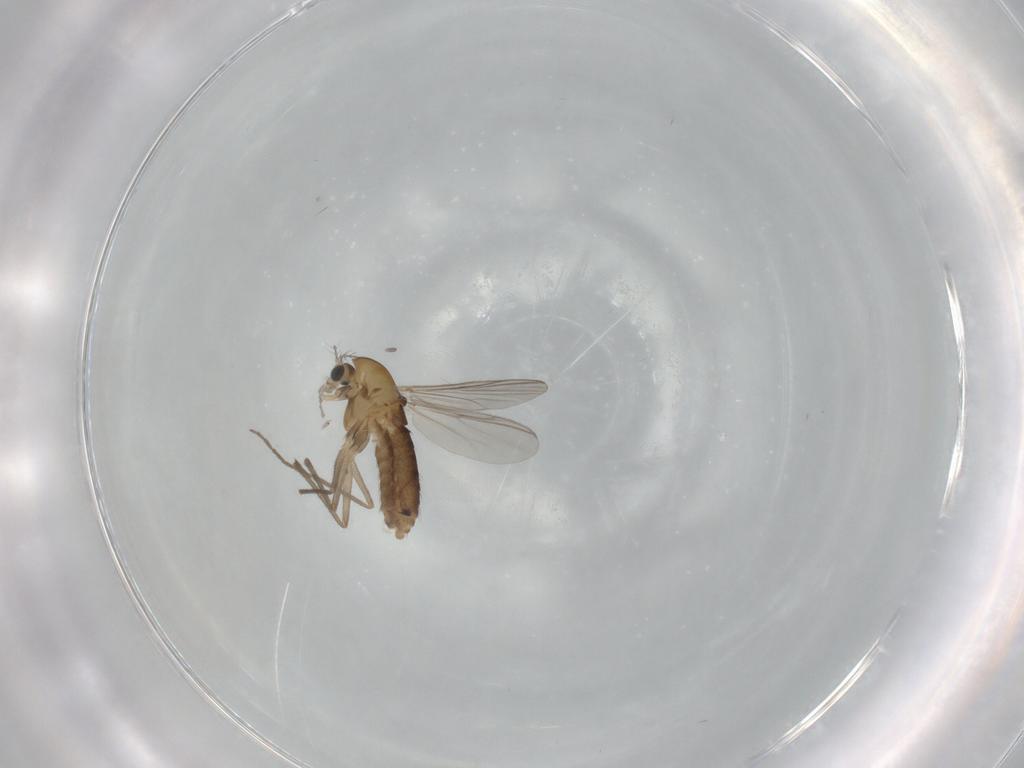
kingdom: Animalia
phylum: Arthropoda
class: Insecta
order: Diptera
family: Chironomidae
